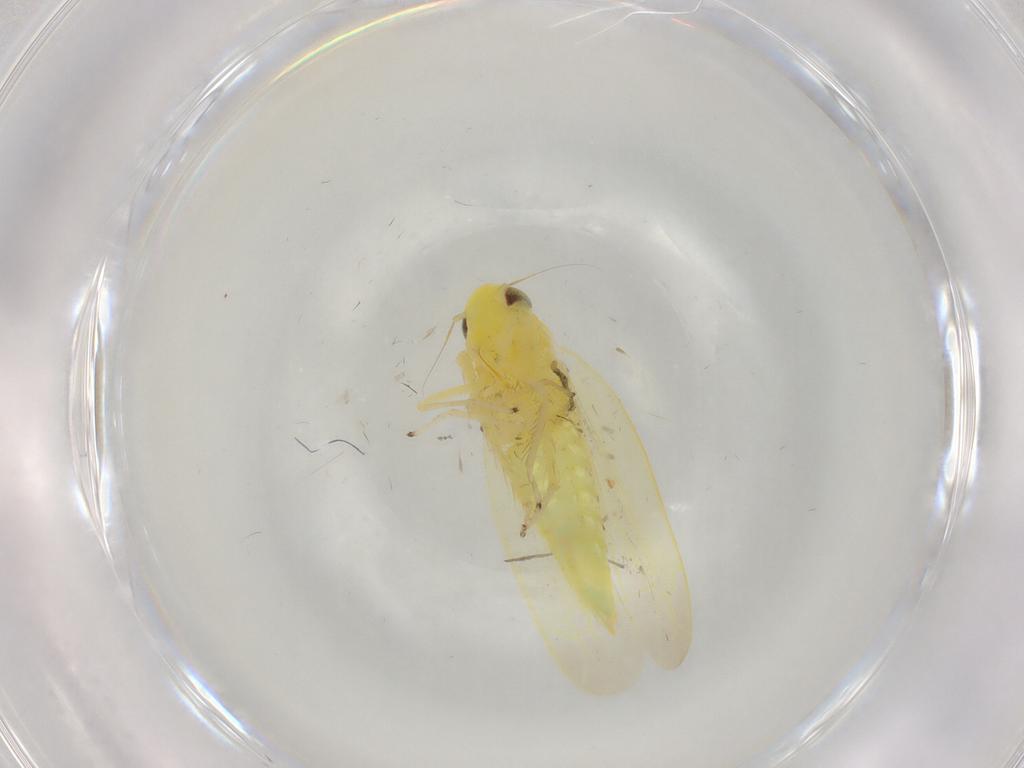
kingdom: Animalia
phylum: Arthropoda
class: Insecta
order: Hemiptera
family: Cicadellidae
